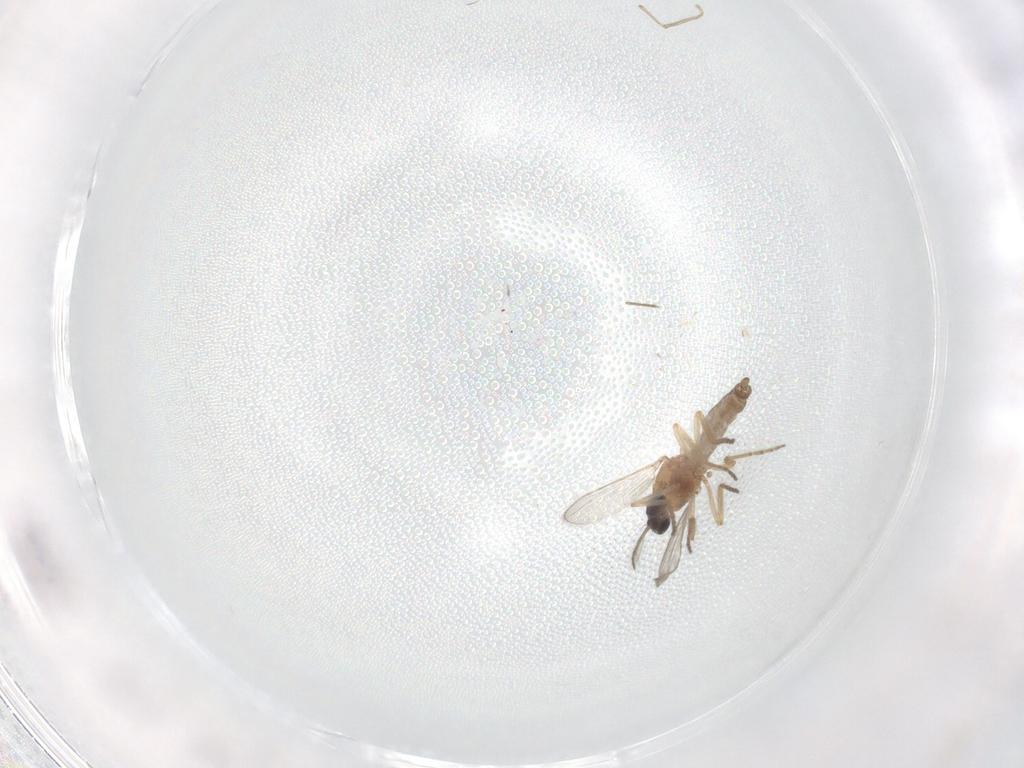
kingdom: Animalia
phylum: Arthropoda
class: Insecta
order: Diptera
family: Ceratopogonidae
